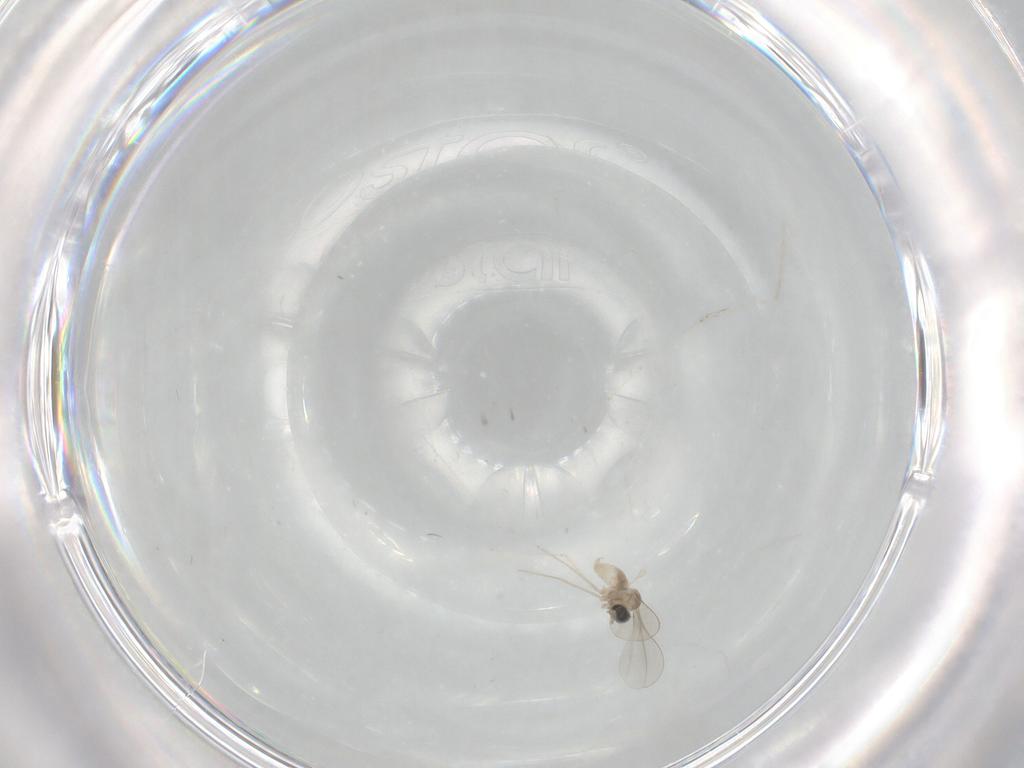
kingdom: Animalia
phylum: Arthropoda
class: Insecta
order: Diptera
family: Cecidomyiidae
